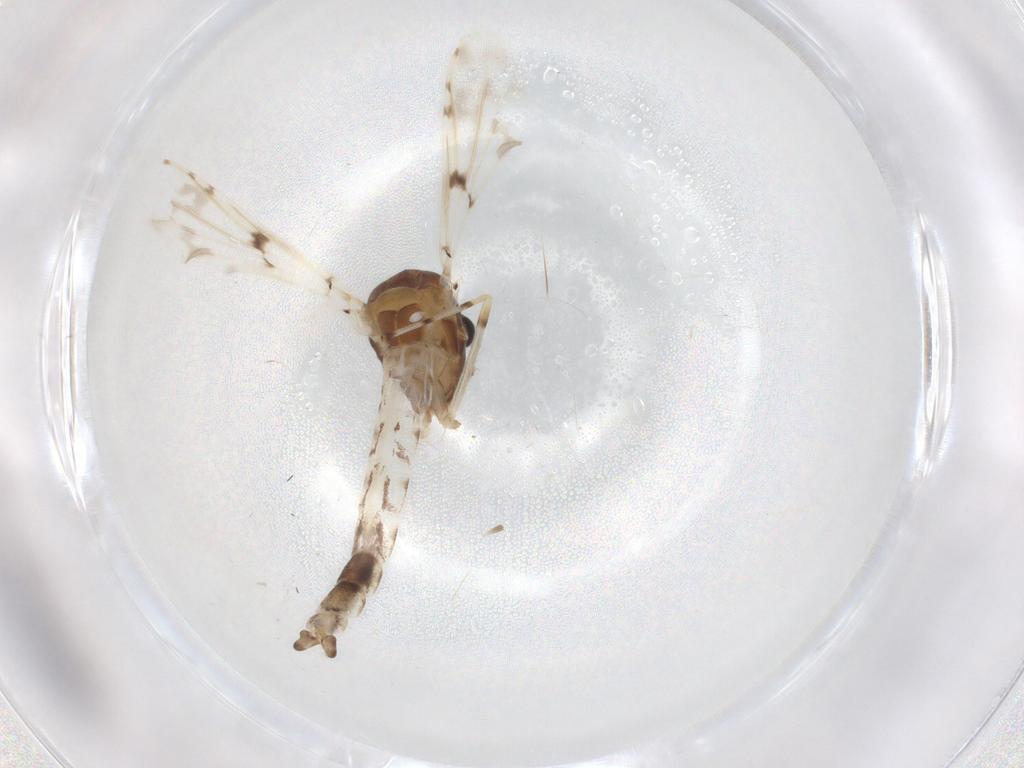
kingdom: Animalia
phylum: Arthropoda
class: Insecta
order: Diptera
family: Chironomidae
